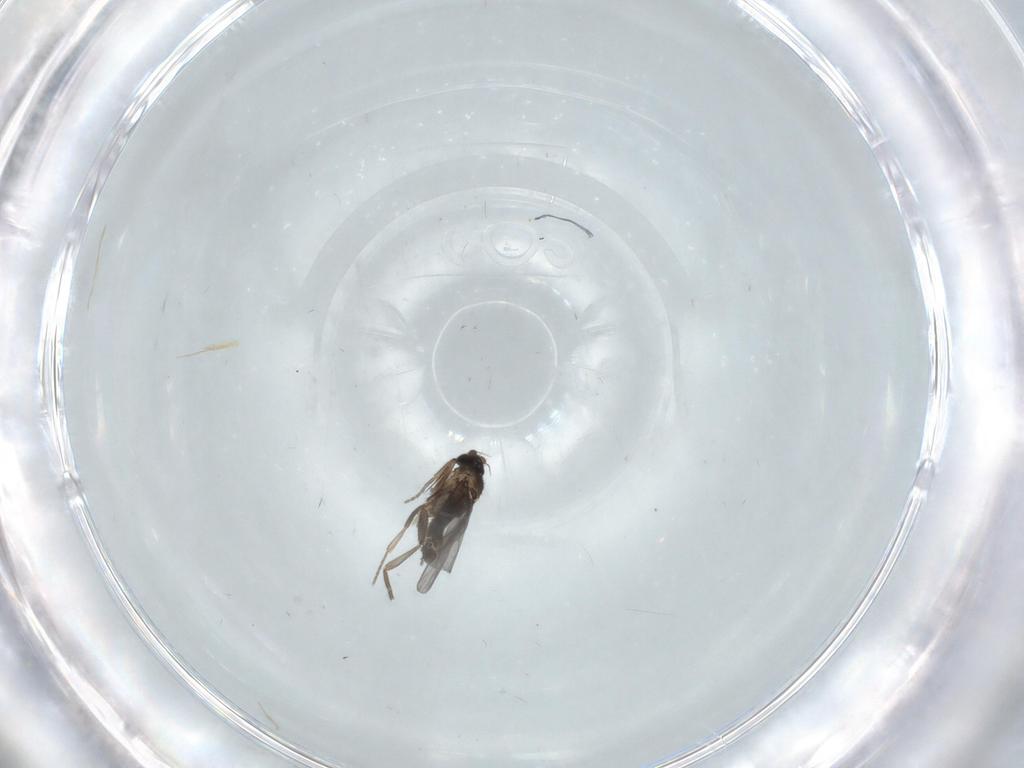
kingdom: Animalia
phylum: Arthropoda
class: Insecta
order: Diptera
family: Phoridae
